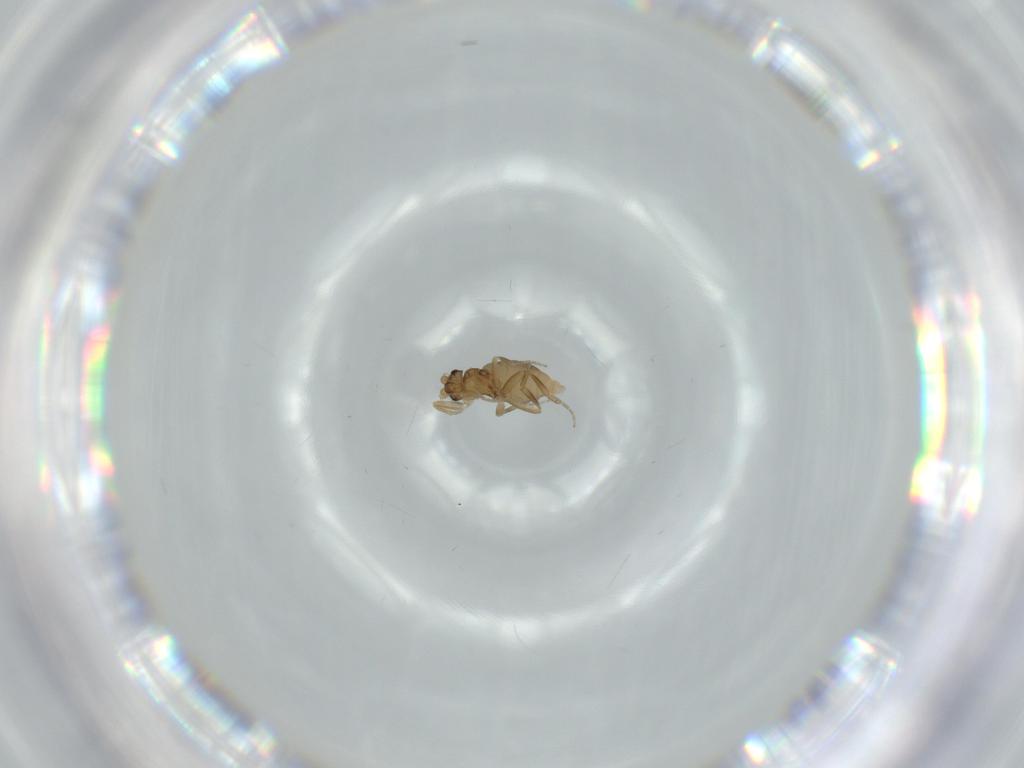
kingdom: Animalia
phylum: Arthropoda
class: Insecta
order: Diptera
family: Phoridae
